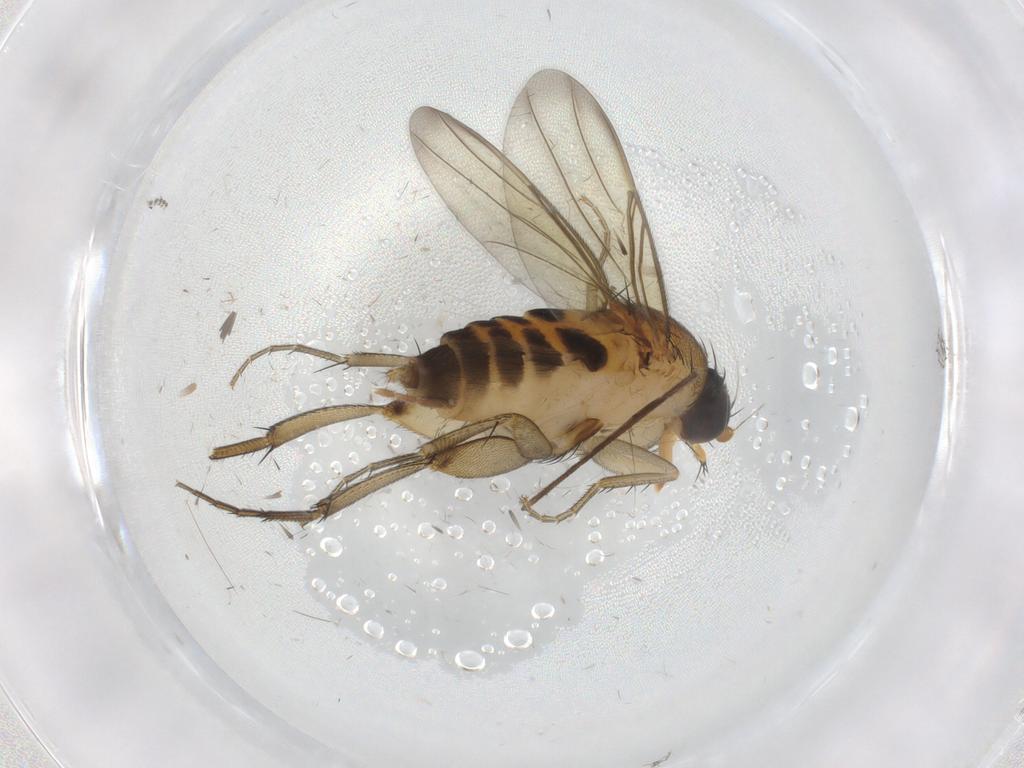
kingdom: Animalia
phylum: Arthropoda
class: Insecta
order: Diptera
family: Phoridae
